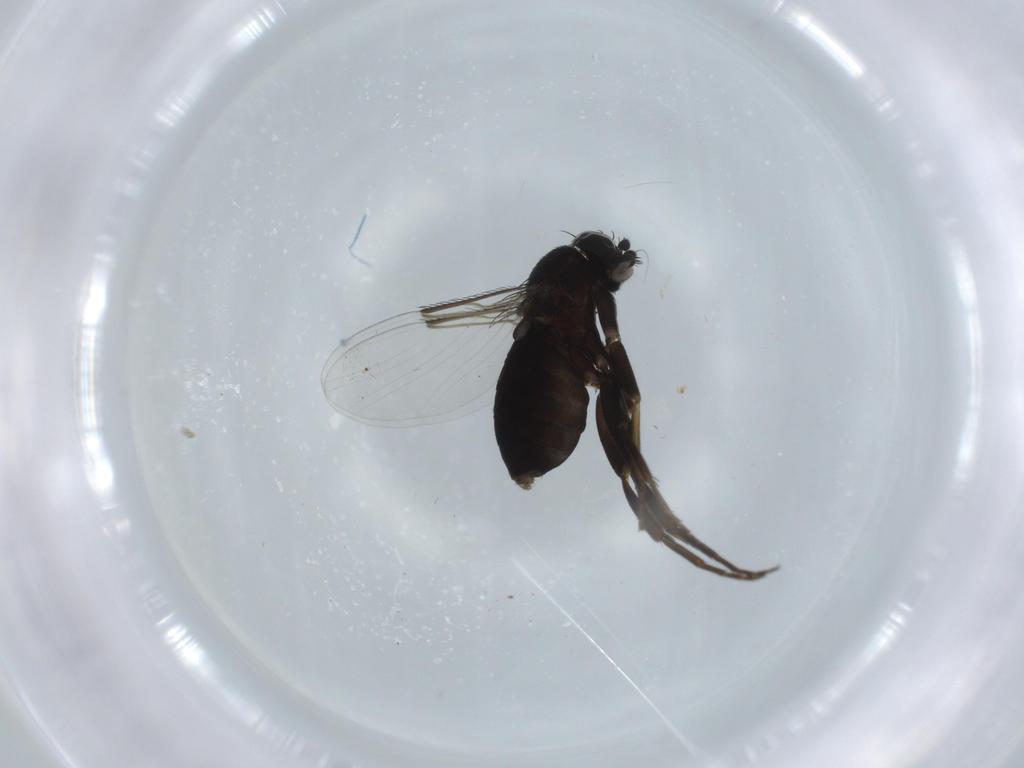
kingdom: Animalia
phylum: Arthropoda
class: Insecta
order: Diptera
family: Phoridae
